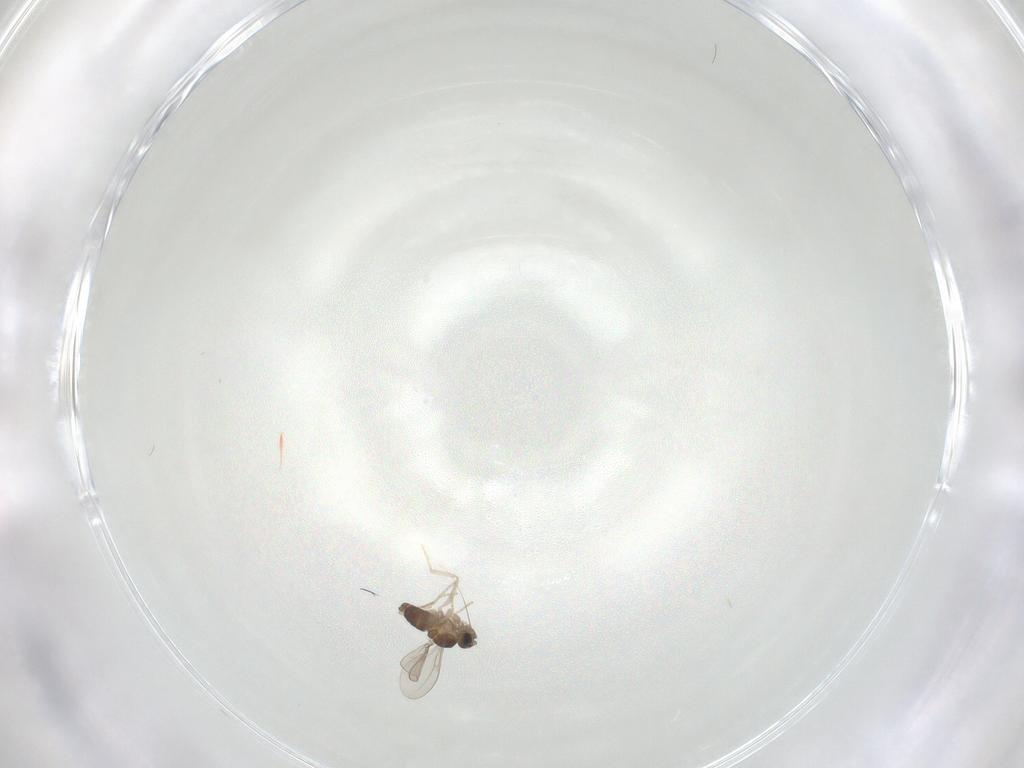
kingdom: Animalia
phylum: Arthropoda
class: Insecta
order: Diptera
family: Cecidomyiidae
